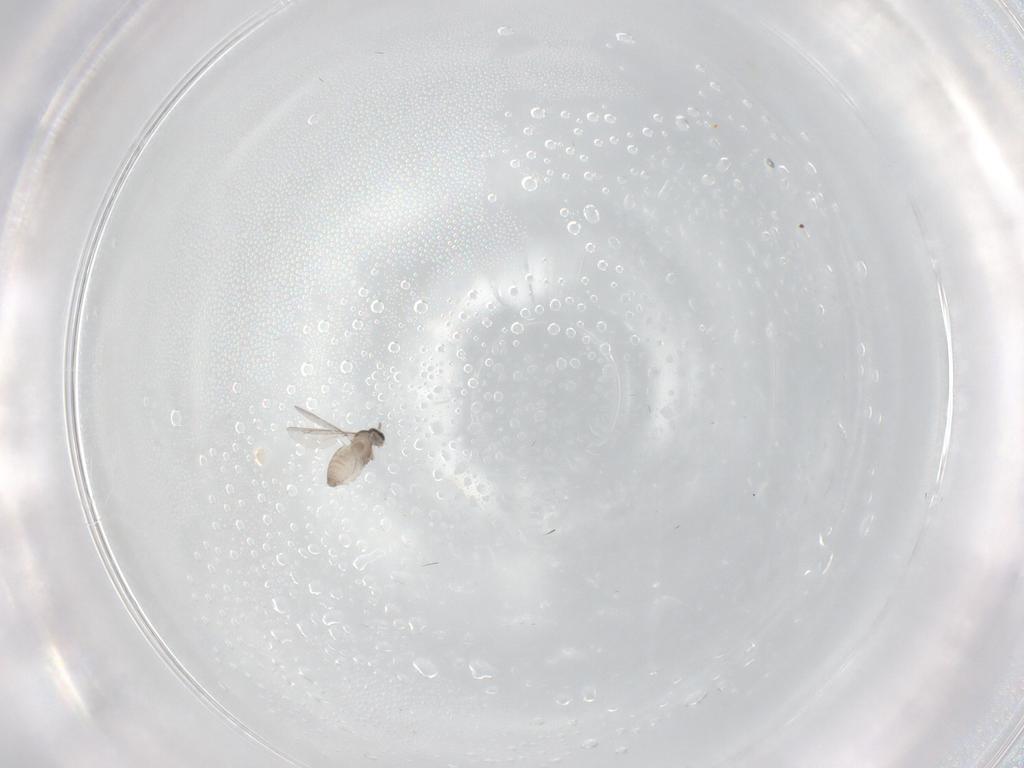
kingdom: Animalia
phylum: Arthropoda
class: Insecta
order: Diptera
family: Cecidomyiidae
